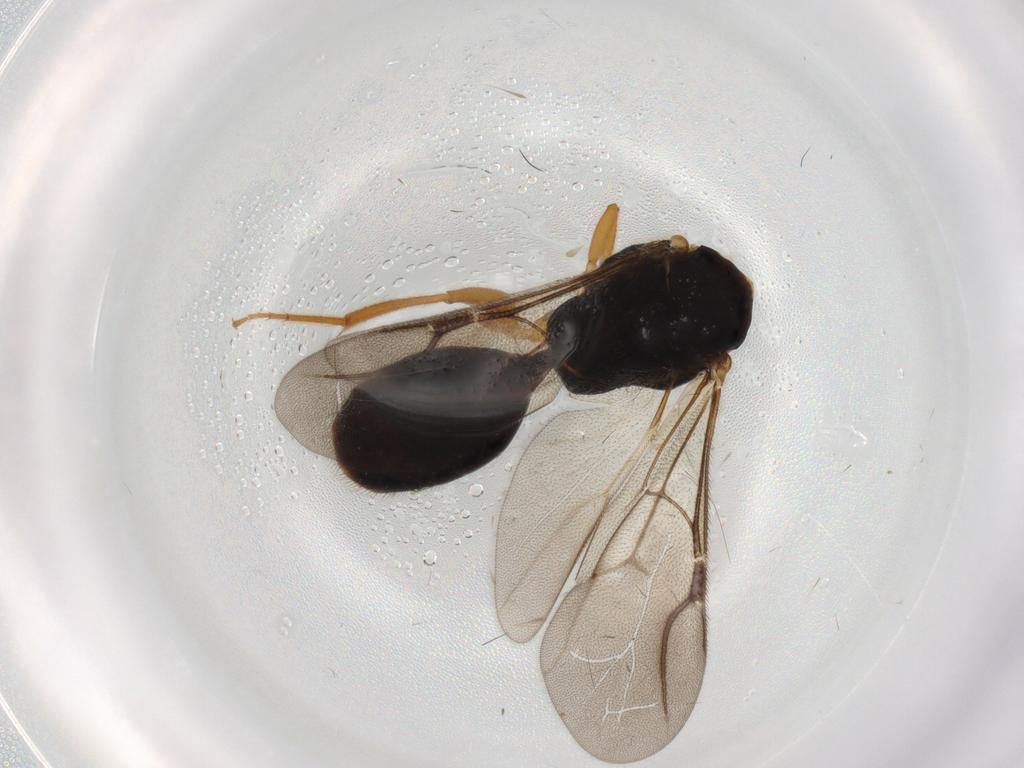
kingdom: Animalia
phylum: Arthropoda
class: Insecta
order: Hymenoptera
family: Bethylidae
